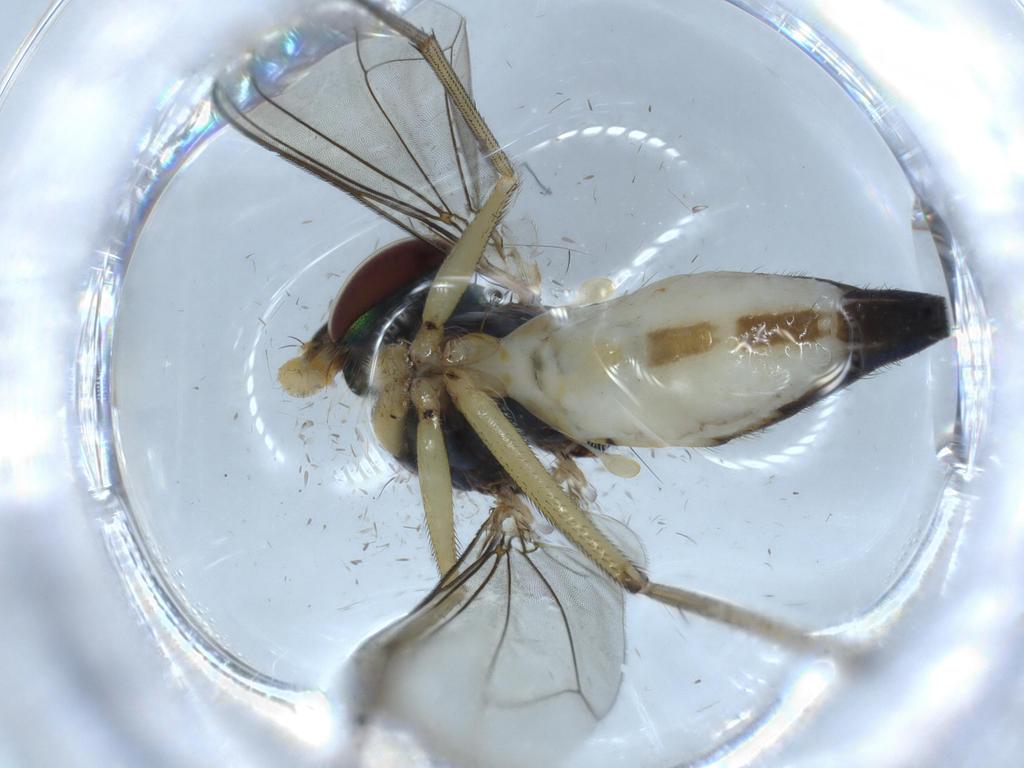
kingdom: Animalia
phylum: Arthropoda
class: Insecta
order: Diptera
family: Dolichopodidae
